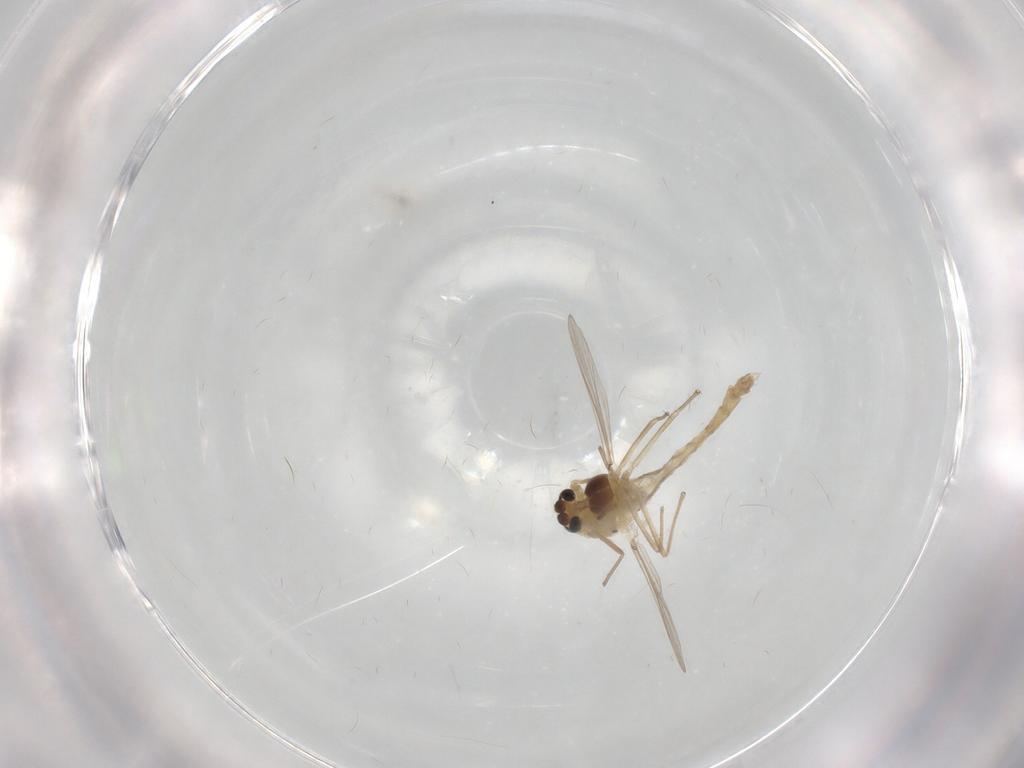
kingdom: Animalia
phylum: Arthropoda
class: Insecta
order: Diptera
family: Chironomidae
